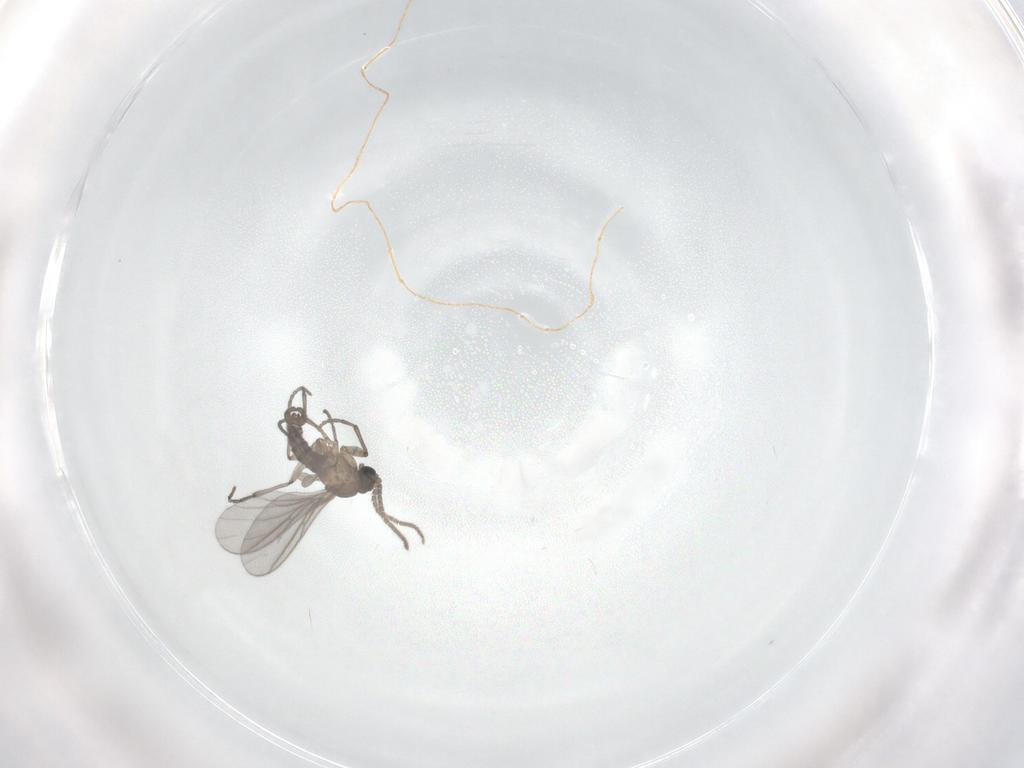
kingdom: Animalia
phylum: Arthropoda
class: Insecta
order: Diptera
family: Sciaridae
